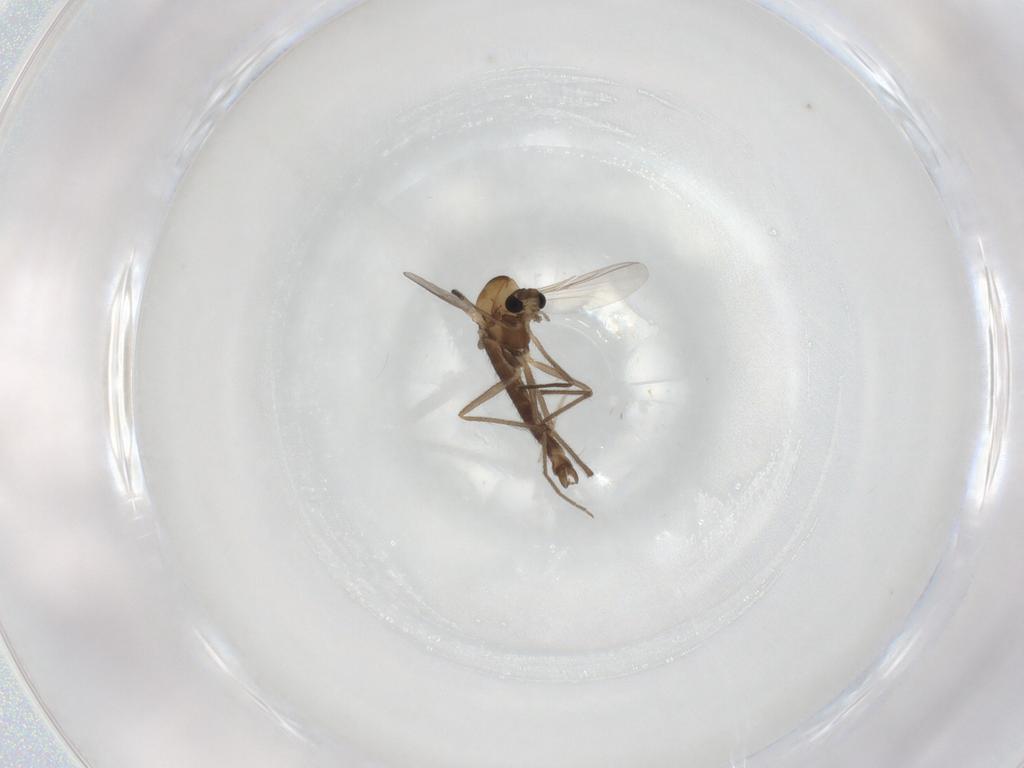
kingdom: Animalia
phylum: Arthropoda
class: Insecta
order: Diptera
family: Chironomidae
